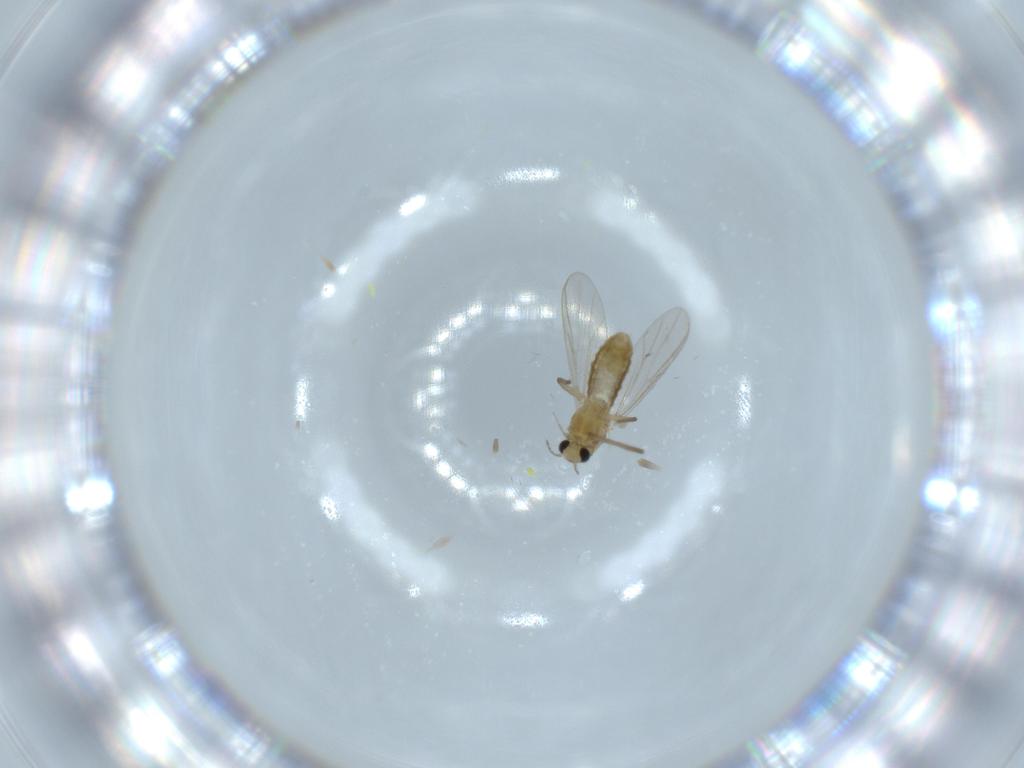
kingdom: Animalia
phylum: Arthropoda
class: Insecta
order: Diptera
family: Chironomidae
